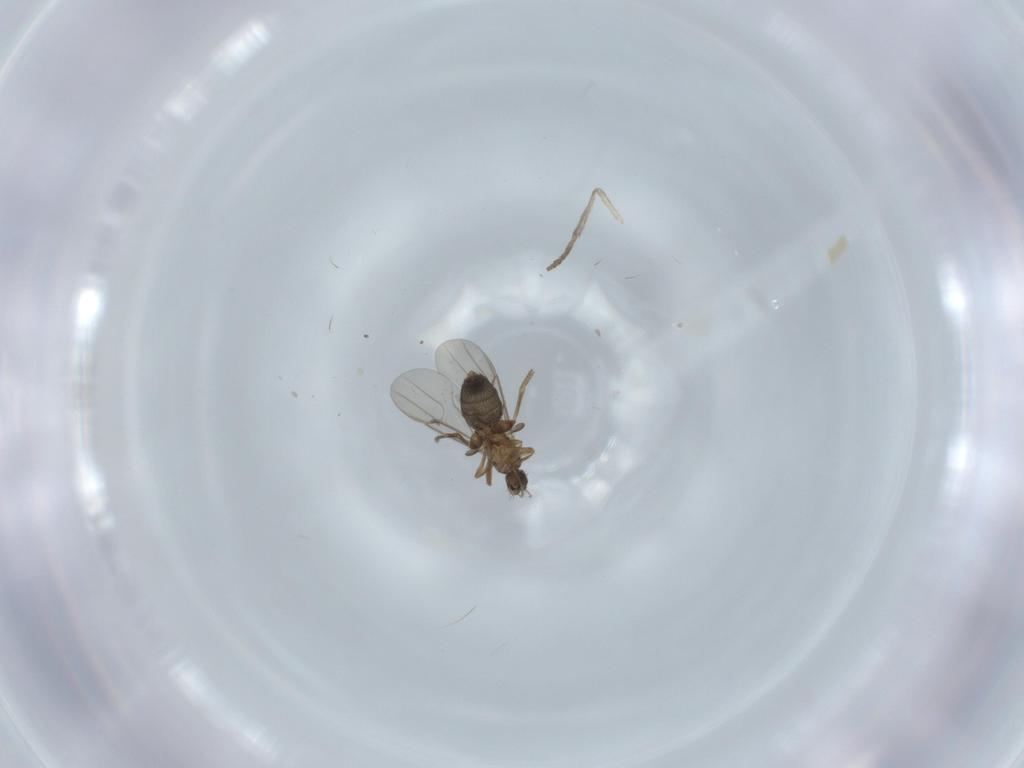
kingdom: Animalia
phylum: Arthropoda
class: Insecta
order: Diptera
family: Psychodidae
